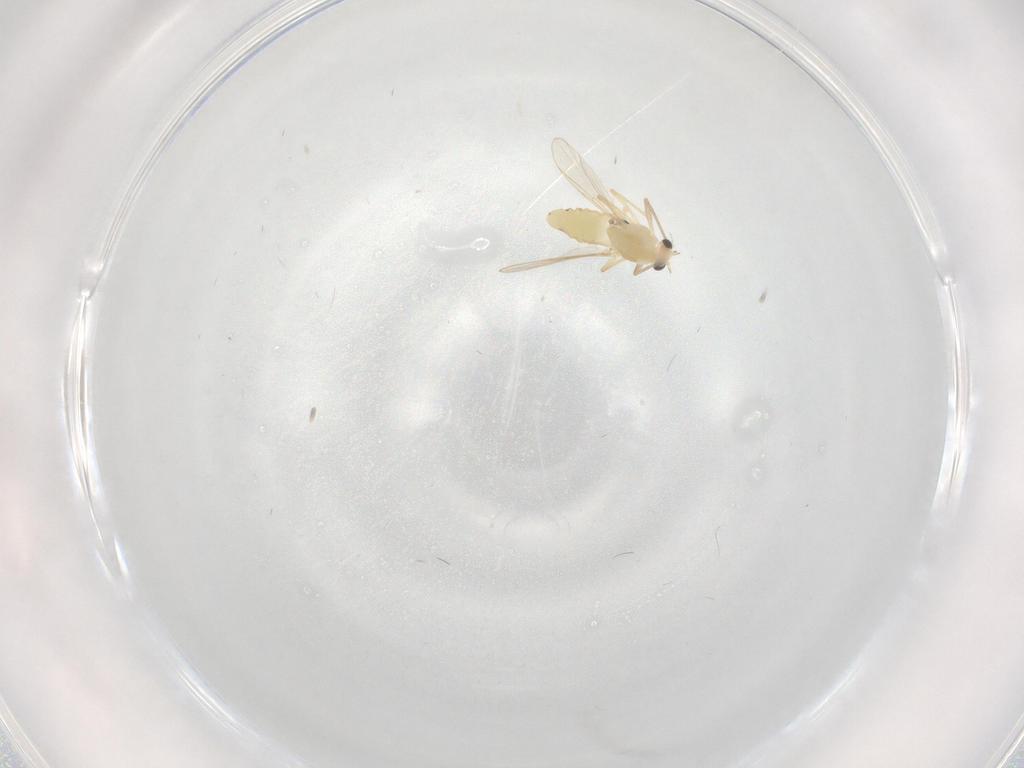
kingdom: Animalia
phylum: Arthropoda
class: Insecta
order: Diptera
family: Chironomidae
